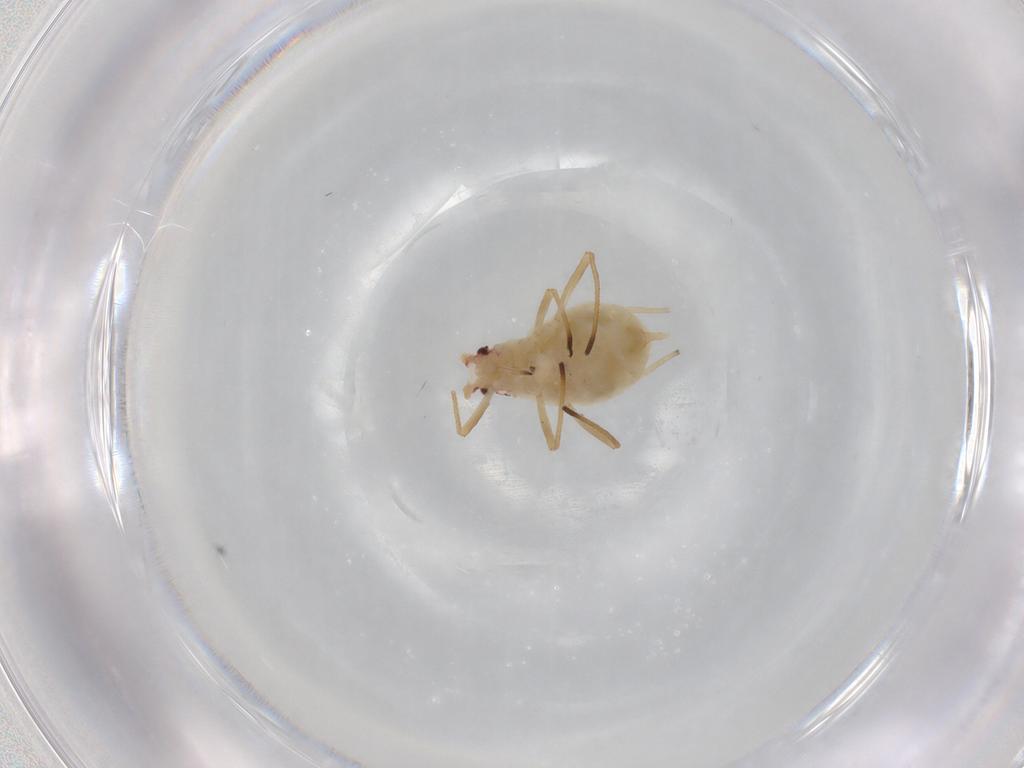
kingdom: Animalia
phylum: Arthropoda
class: Insecta
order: Hemiptera
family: Aphididae
